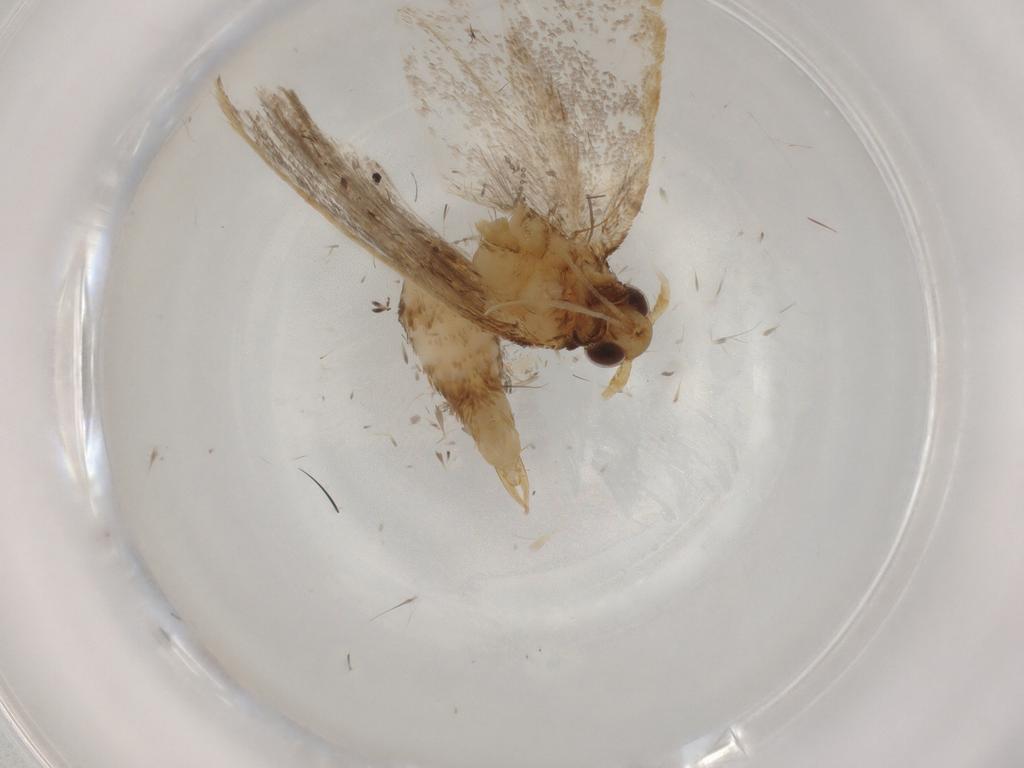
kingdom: Animalia
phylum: Arthropoda
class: Insecta
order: Lepidoptera
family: Lecithoceridae
